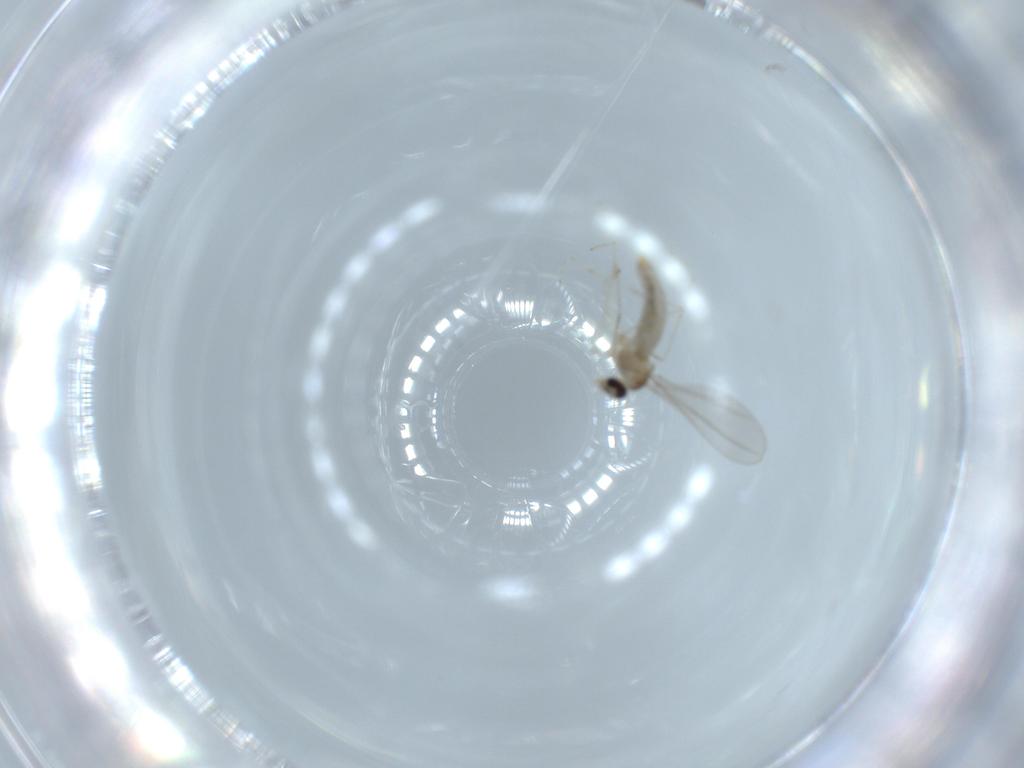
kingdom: Animalia
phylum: Arthropoda
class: Insecta
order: Diptera
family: Cecidomyiidae
